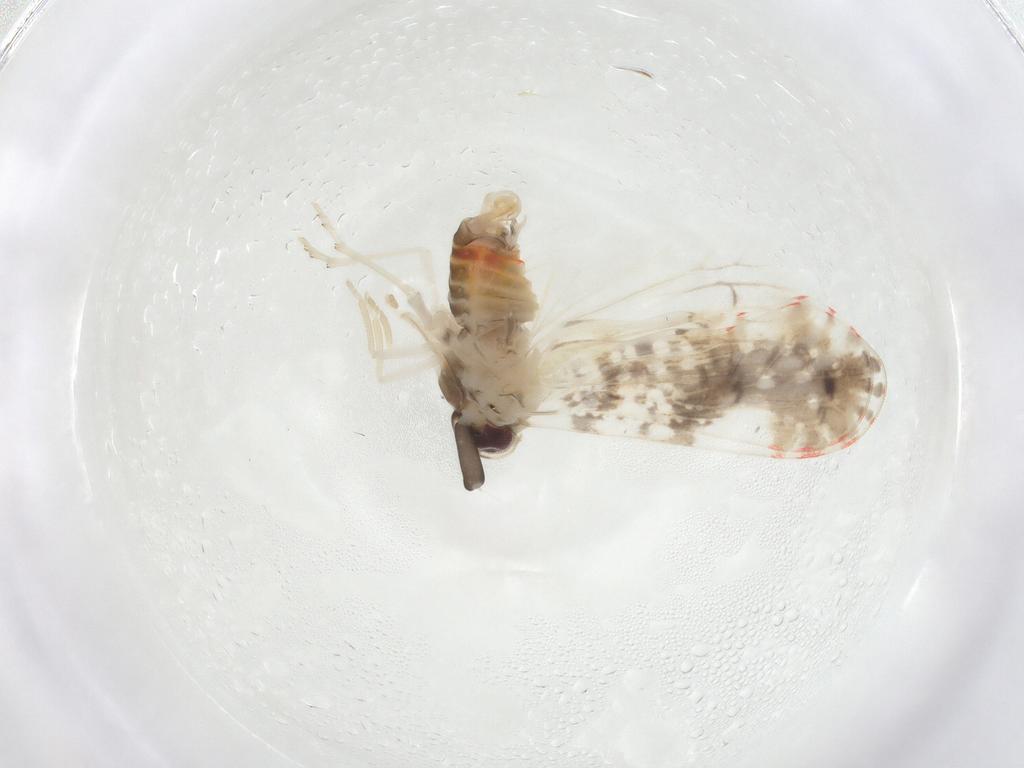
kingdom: Animalia
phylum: Arthropoda
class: Insecta
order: Hemiptera
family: Derbidae
